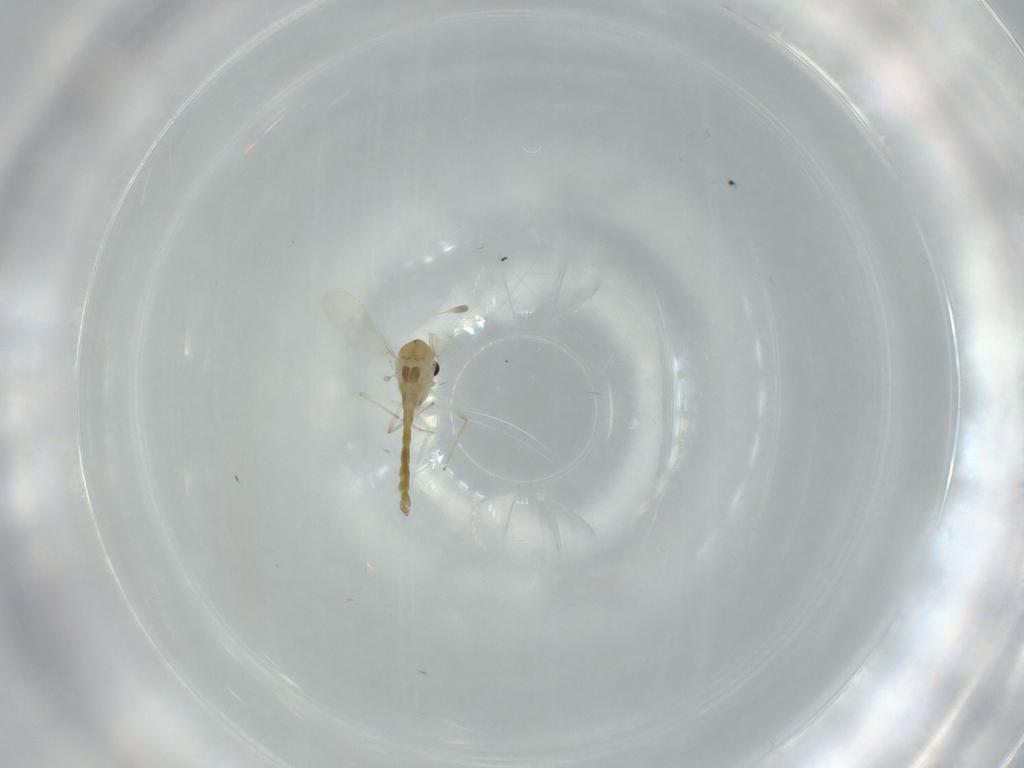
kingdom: Animalia
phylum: Arthropoda
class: Insecta
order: Diptera
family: Chironomidae
